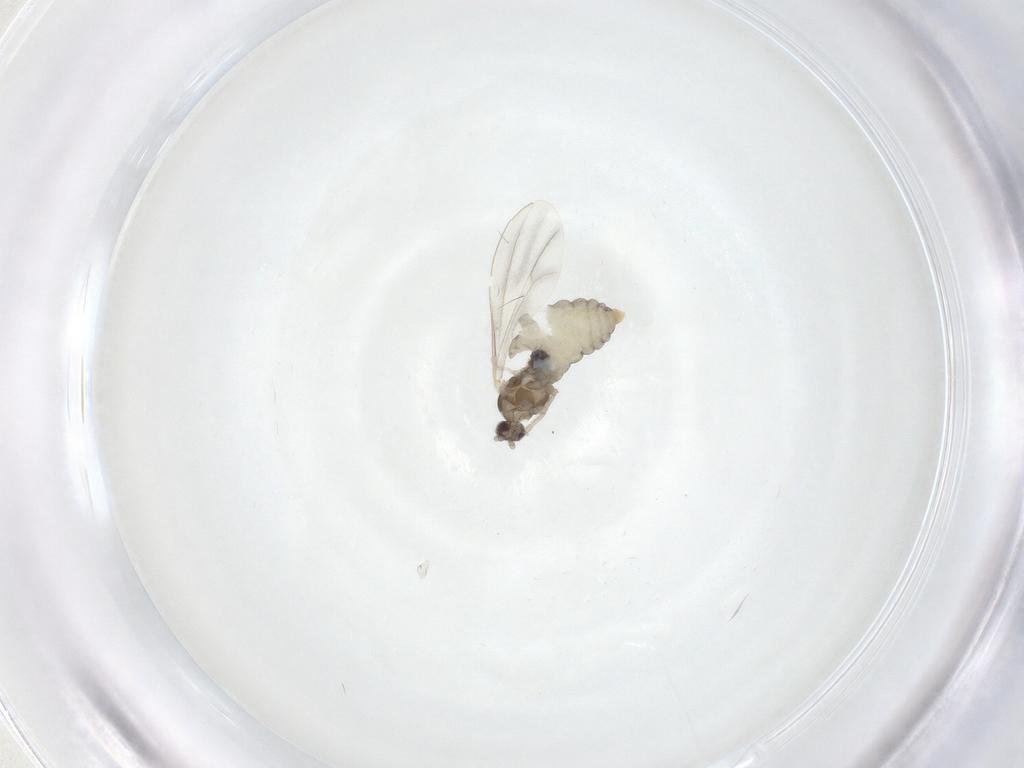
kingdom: Animalia
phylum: Arthropoda
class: Insecta
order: Diptera
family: Cecidomyiidae
